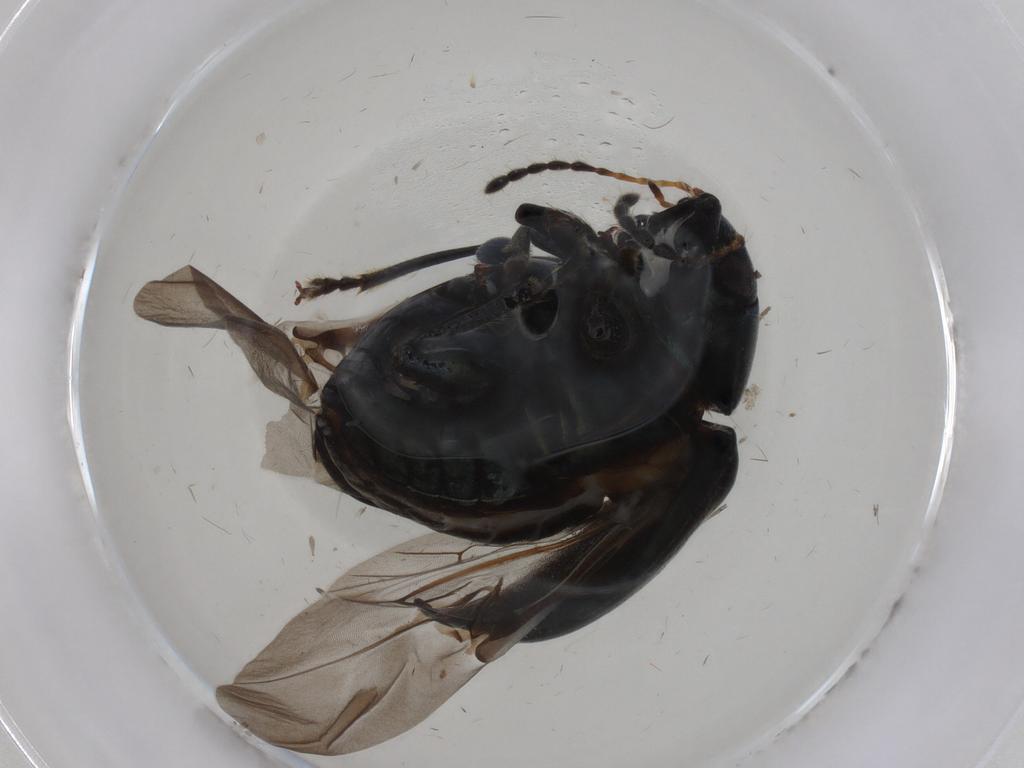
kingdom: Animalia
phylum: Arthropoda
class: Insecta
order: Coleoptera
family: Chrysomelidae
